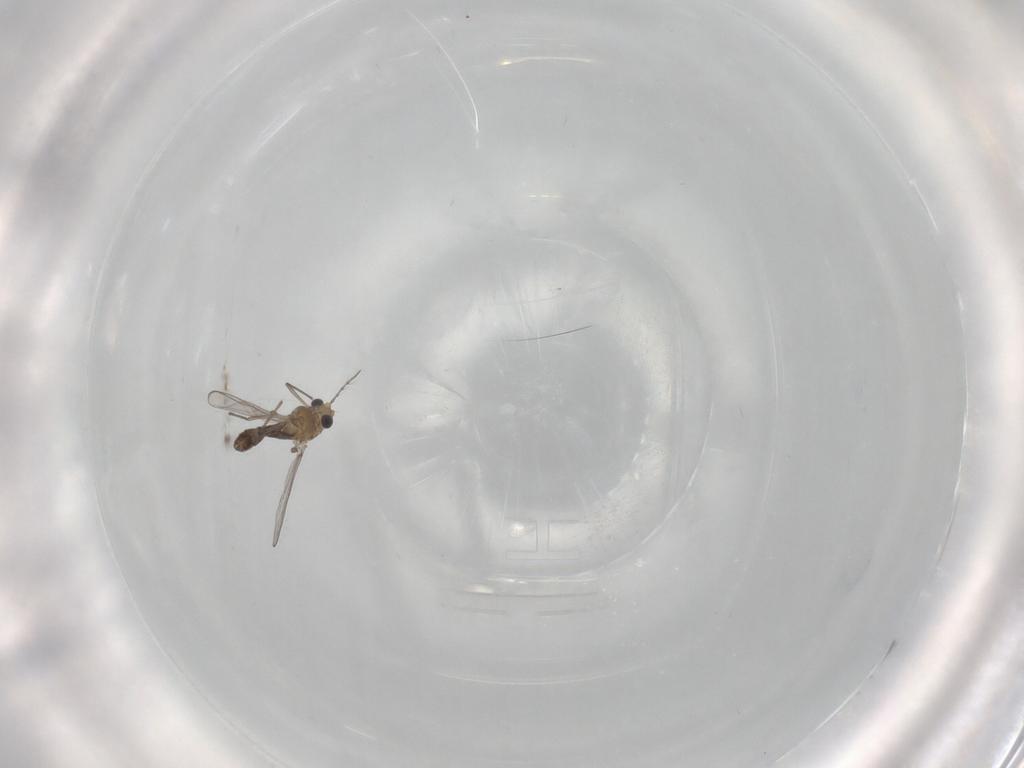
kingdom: Animalia
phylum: Arthropoda
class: Insecta
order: Diptera
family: Chironomidae
